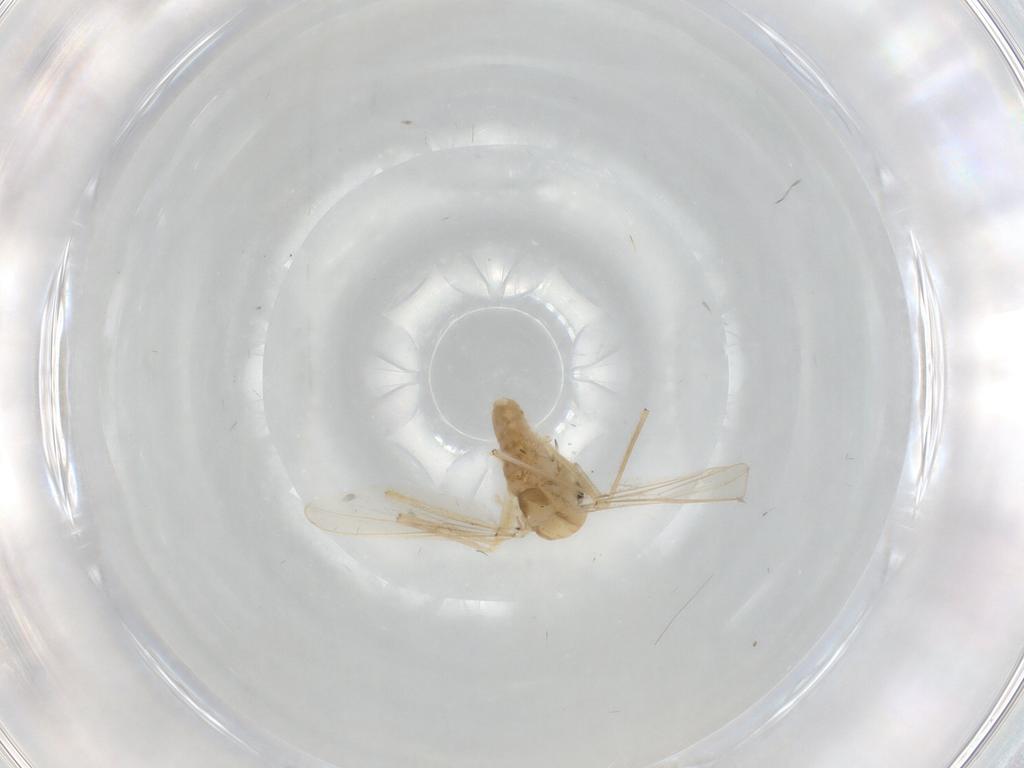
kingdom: Animalia
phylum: Arthropoda
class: Insecta
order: Diptera
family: Chironomidae
